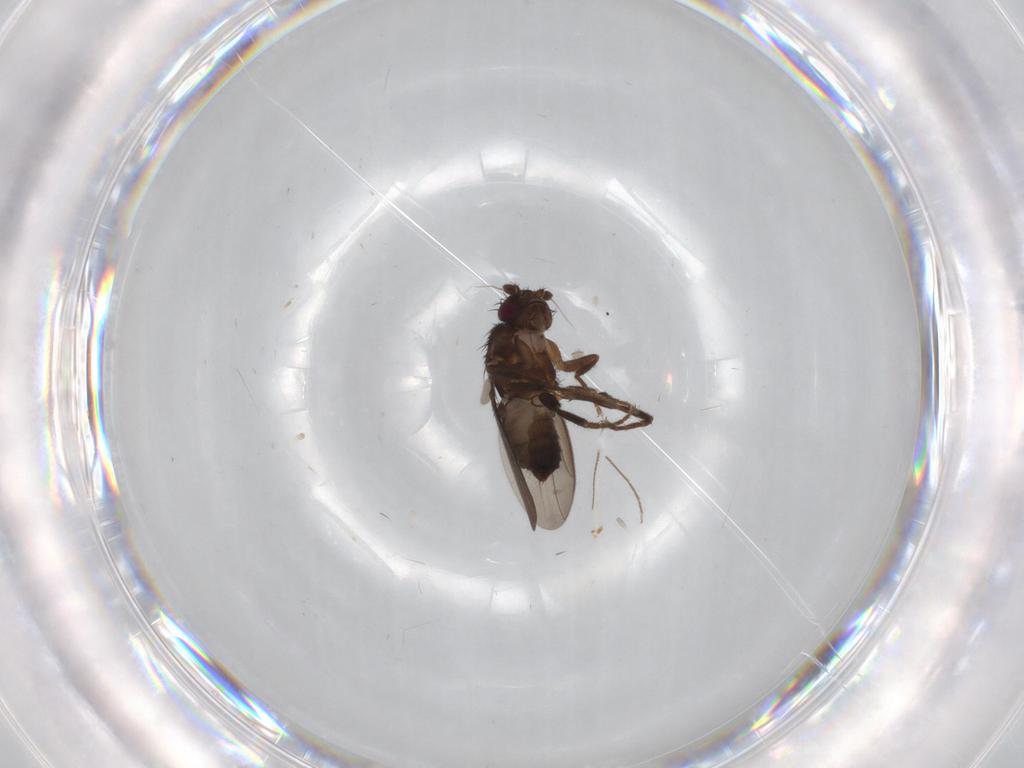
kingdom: Animalia
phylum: Arthropoda
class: Insecta
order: Diptera
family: Chironomidae
